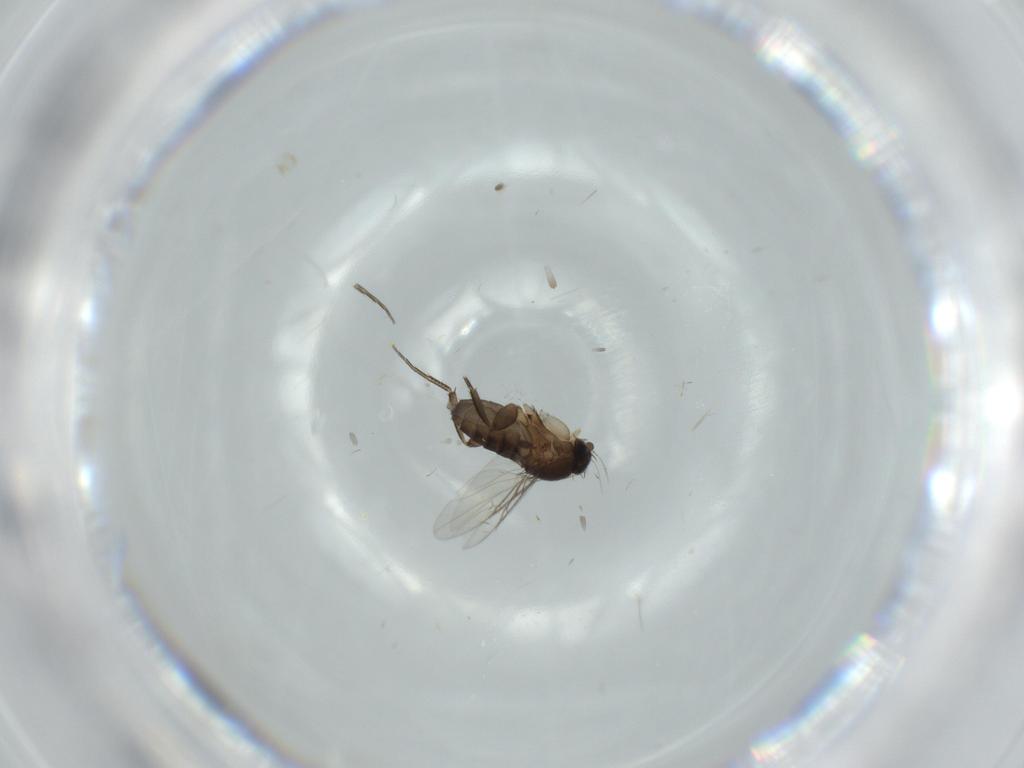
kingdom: Animalia
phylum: Arthropoda
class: Insecta
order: Diptera
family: Phoridae
